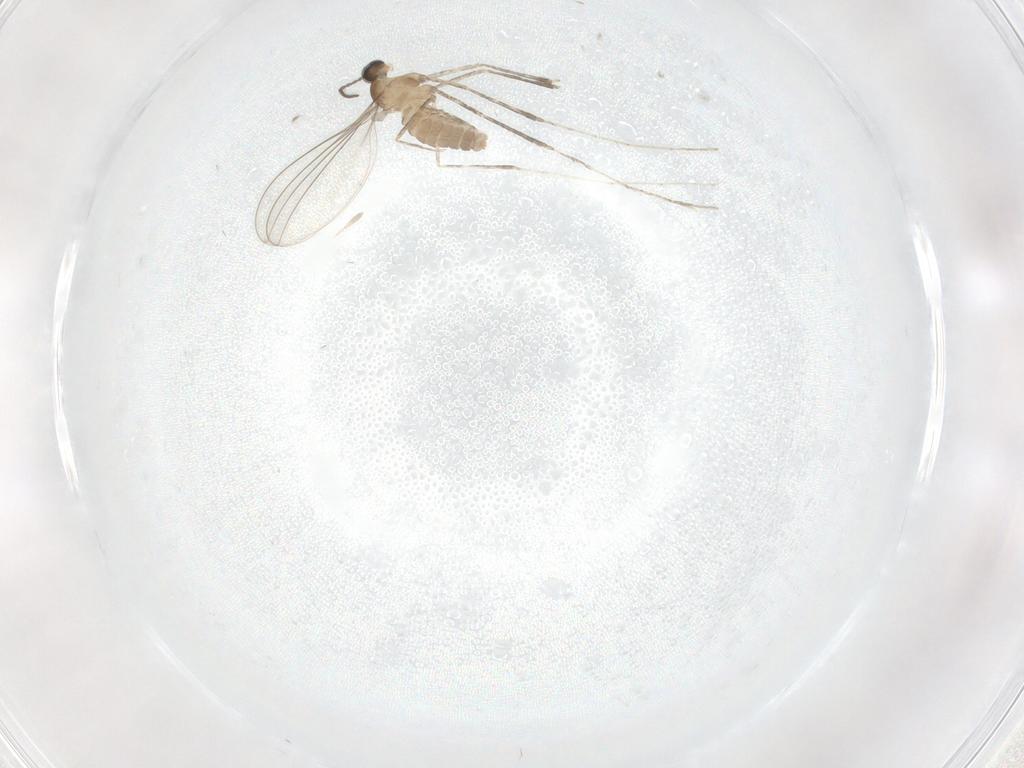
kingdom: Animalia
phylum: Arthropoda
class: Insecta
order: Diptera
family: Cecidomyiidae
